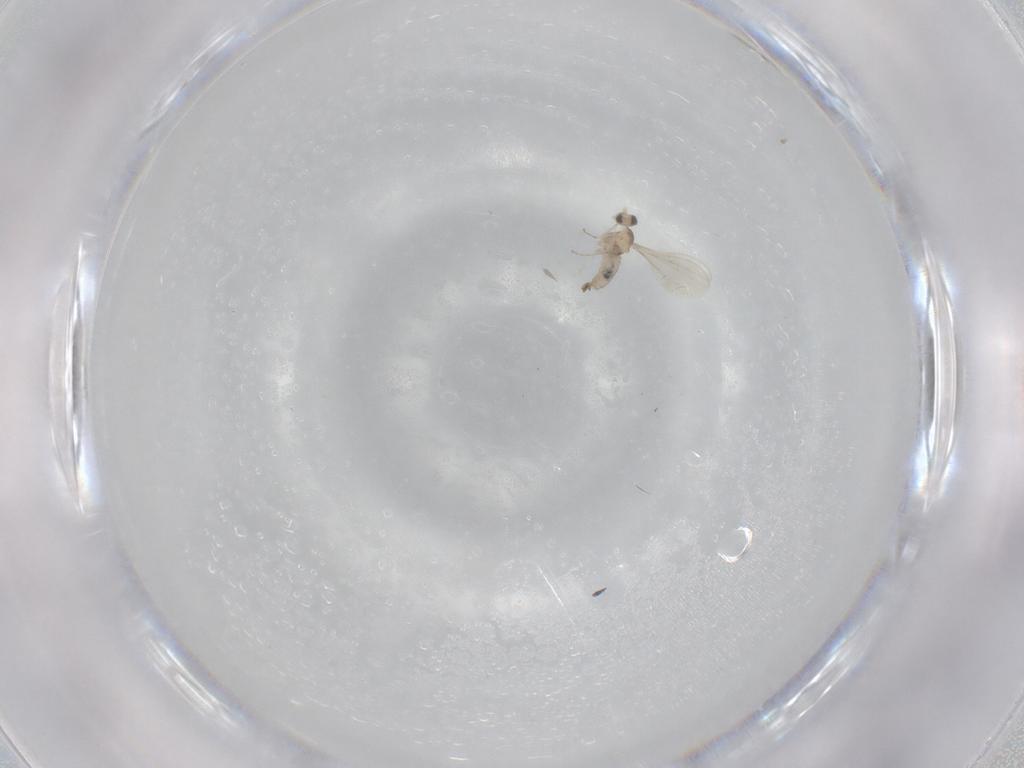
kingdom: Animalia
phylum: Arthropoda
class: Insecta
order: Diptera
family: Cecidomyiidae
